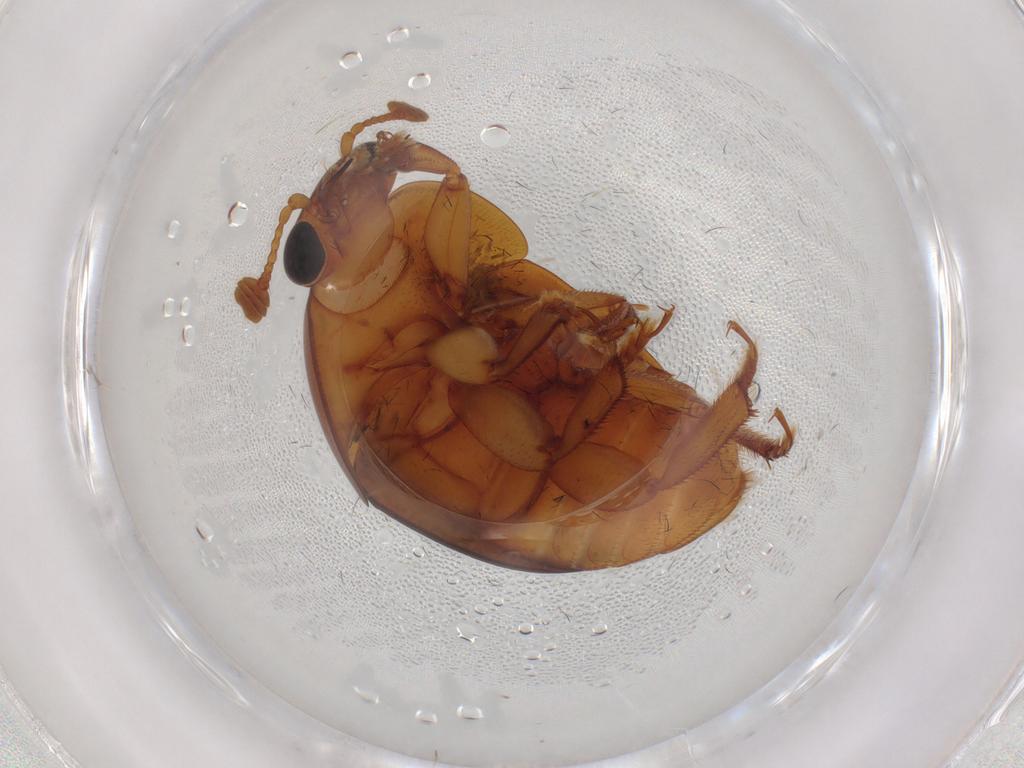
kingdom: Animalia
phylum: Arthropoda
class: Insecta
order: Coleoptera
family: Nitidulidae
